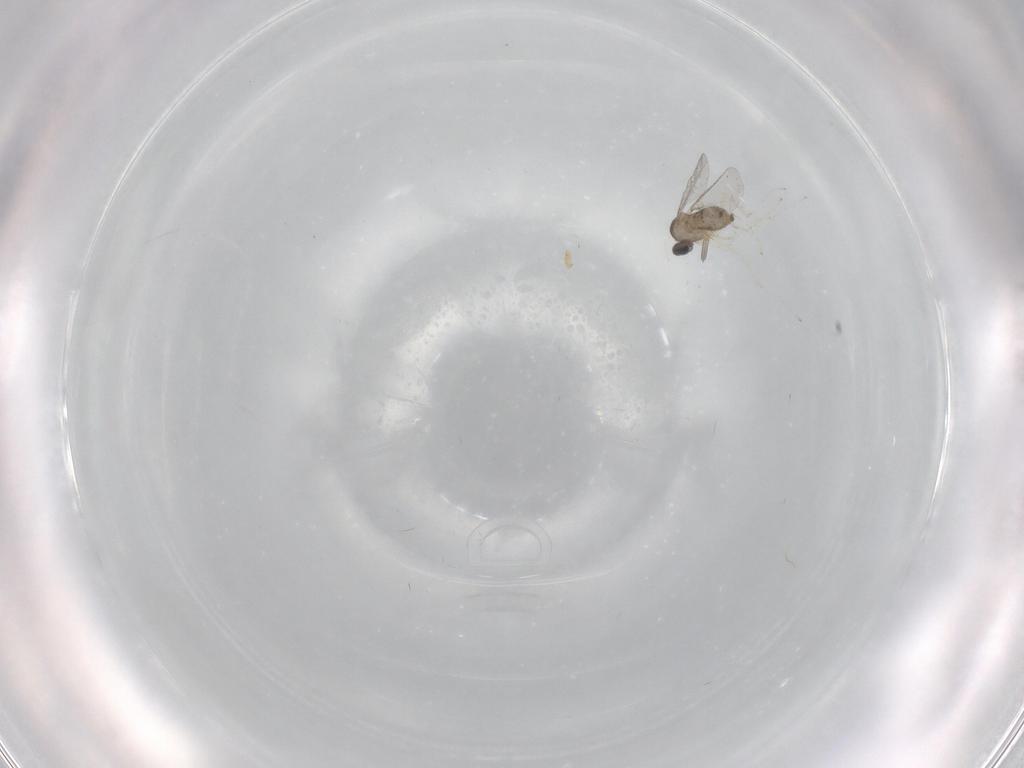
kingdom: Animalia
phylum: Arthropoda
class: Insecta
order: Diptera
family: Cecidomyiidae
